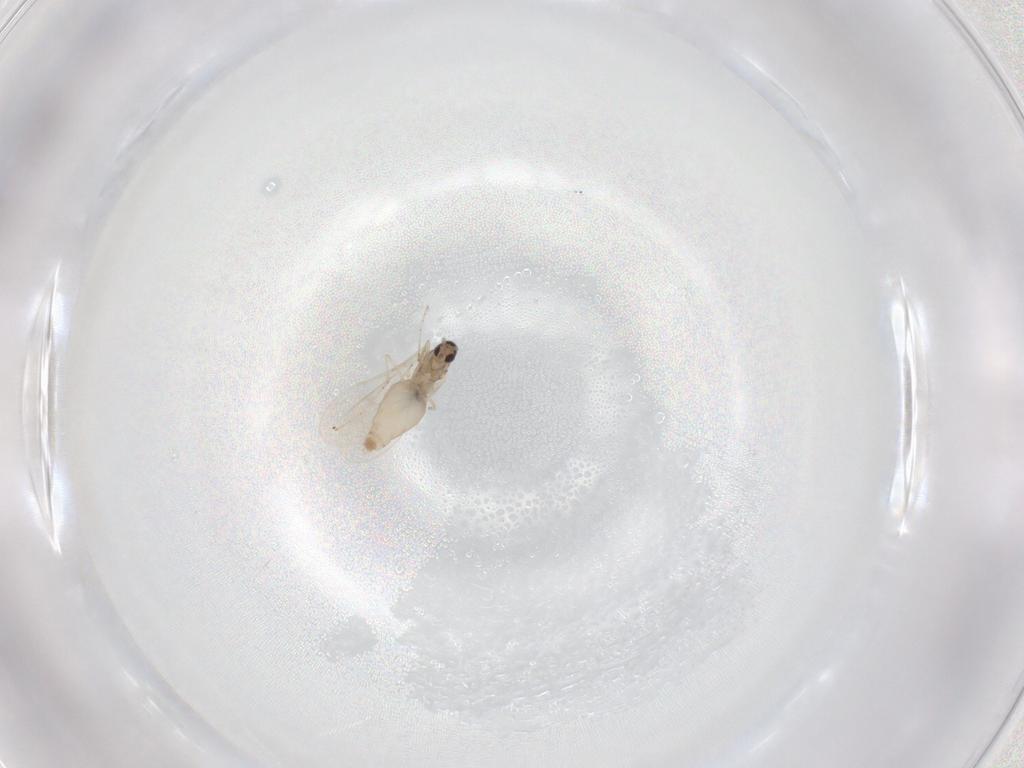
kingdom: Animalia
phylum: Arthropoda
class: Insecta
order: Diptera
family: Cecidomyiidae
